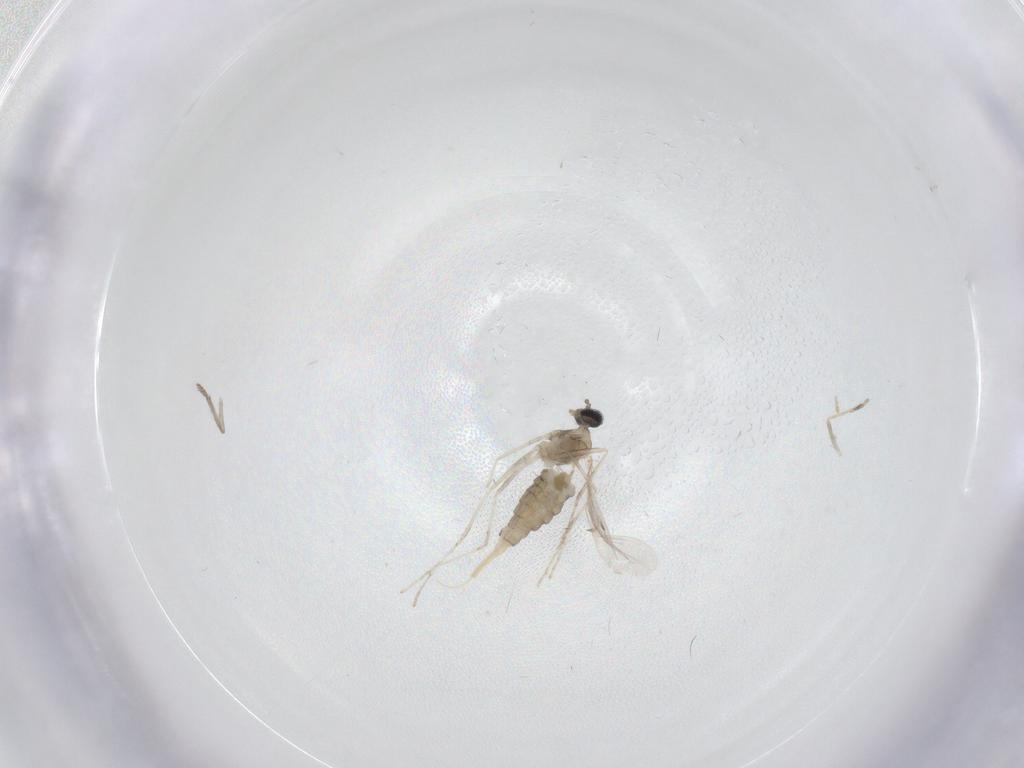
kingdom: Animalia
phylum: Arthropoda
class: Insecta
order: Diptera
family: Cecidomyiidae
